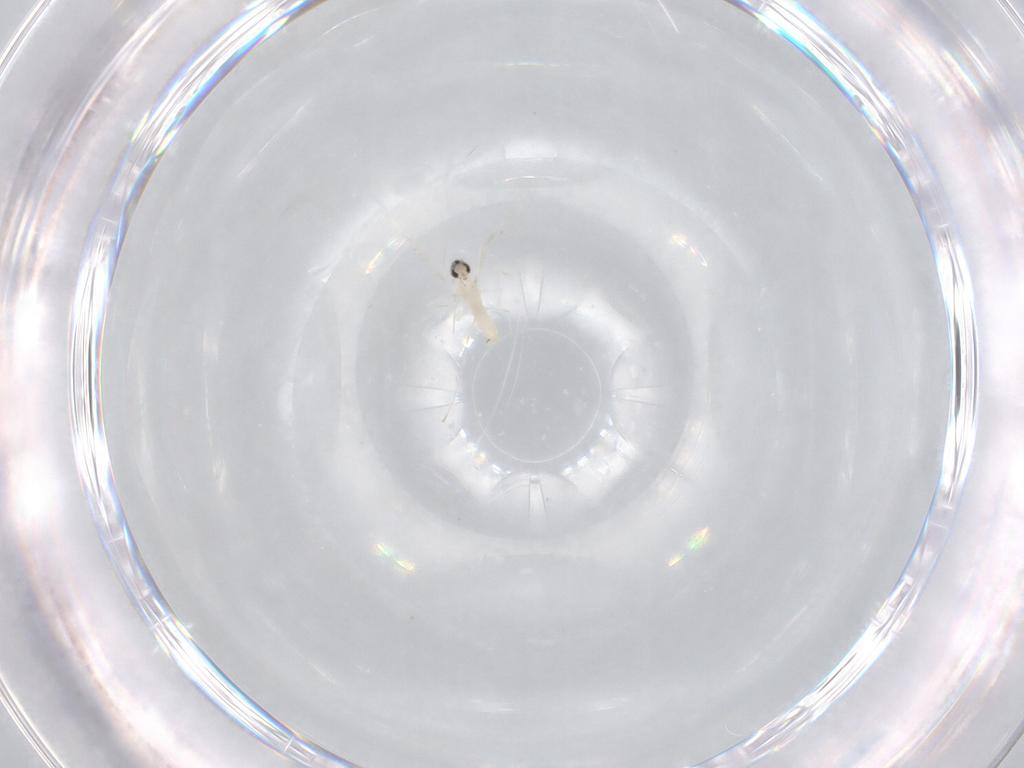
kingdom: Animalia
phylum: Arthropoda
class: Insecta
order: Diptera
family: Cecidomyiidae
